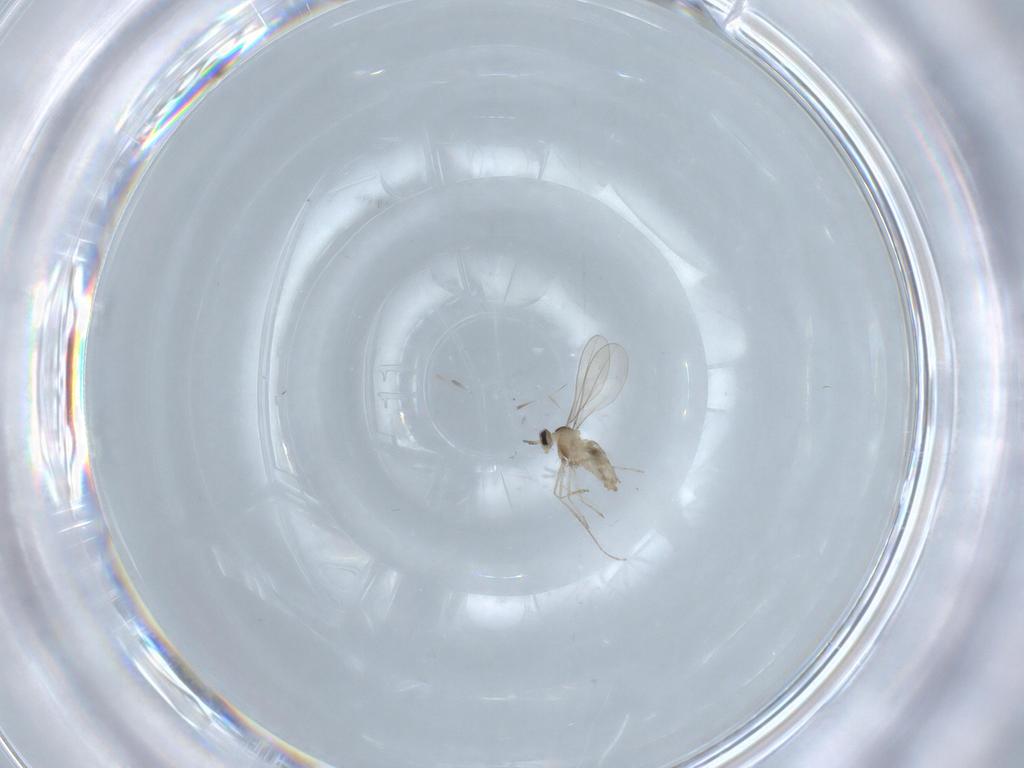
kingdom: Animalia
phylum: Arthropoda
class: Insecta
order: Diptera
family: Cecidomyiidae
